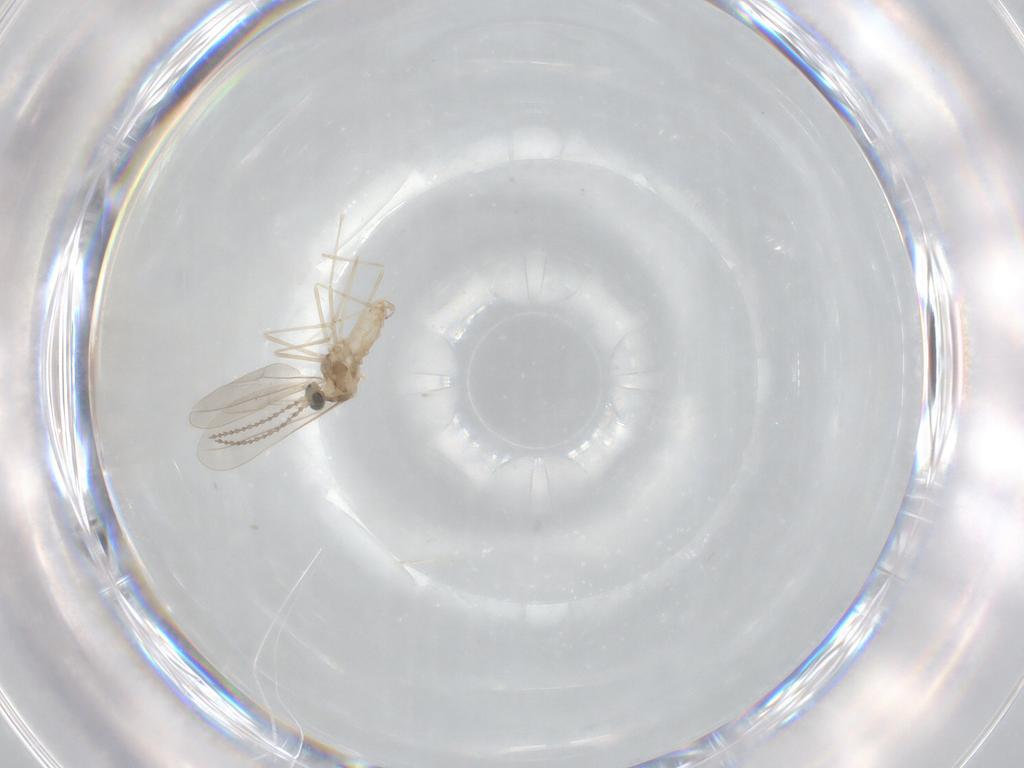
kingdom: Animalia
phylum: Arthropoda
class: Insecta
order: Diptera
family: Cecidomyiidae
